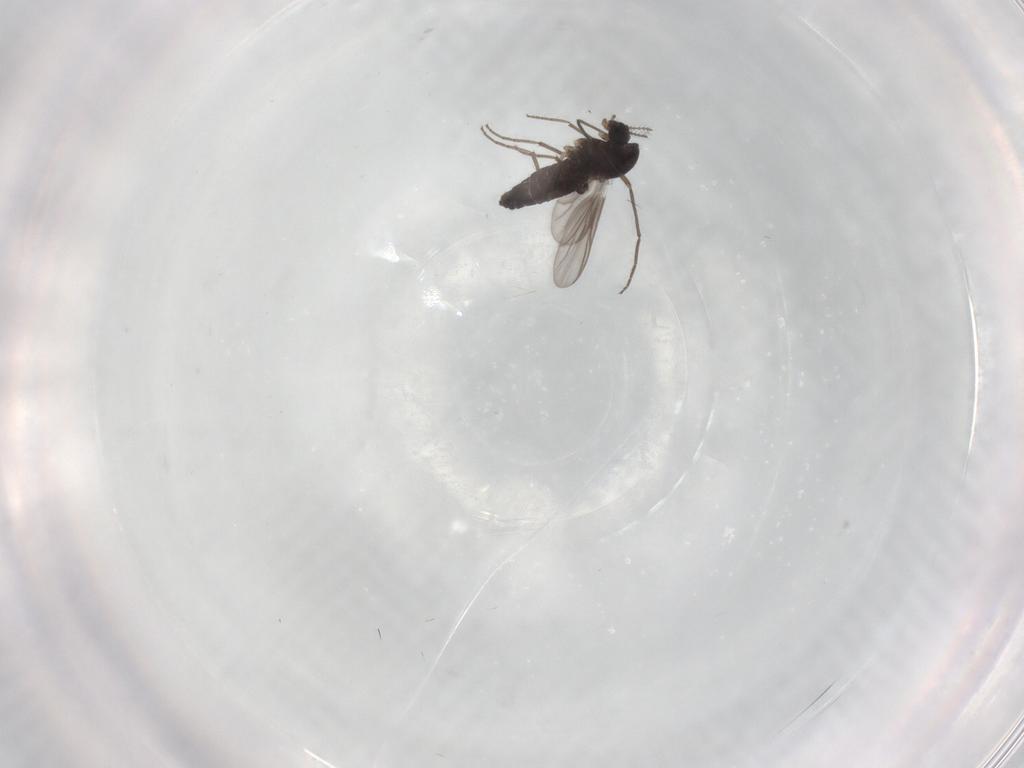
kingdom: Animalia
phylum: Arthropoda
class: Insecta
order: Diptera
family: Chironomidae
